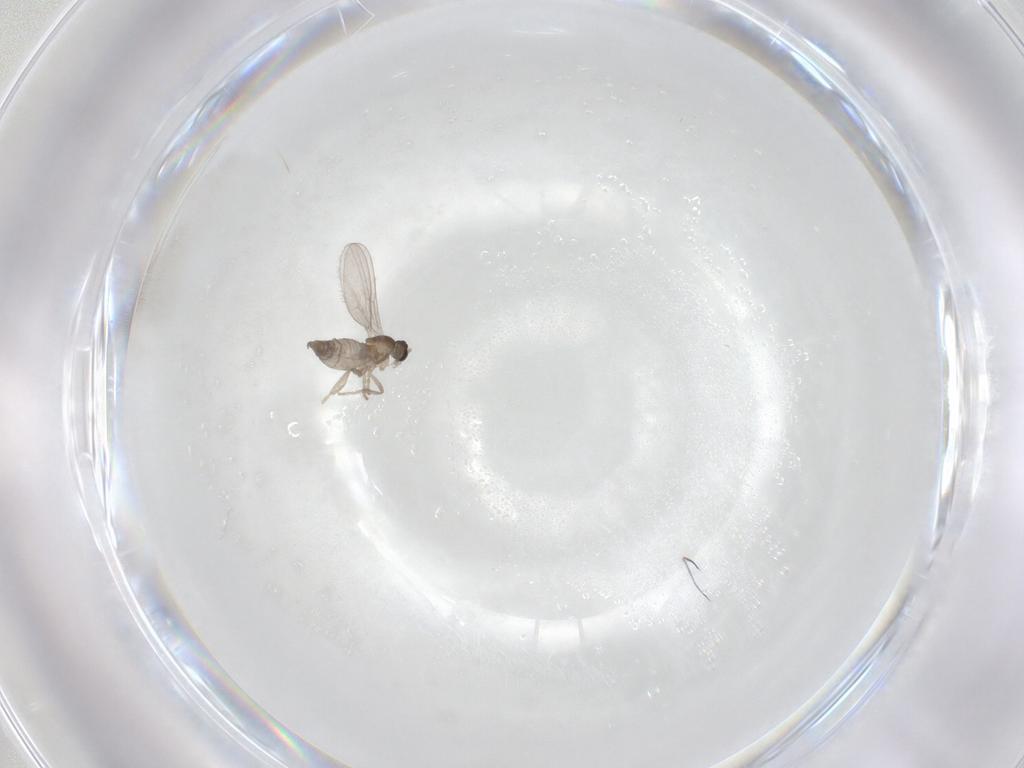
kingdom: Animalia
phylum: Arthropoda
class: Insecta
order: Diptera
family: Cecidomyiidae
